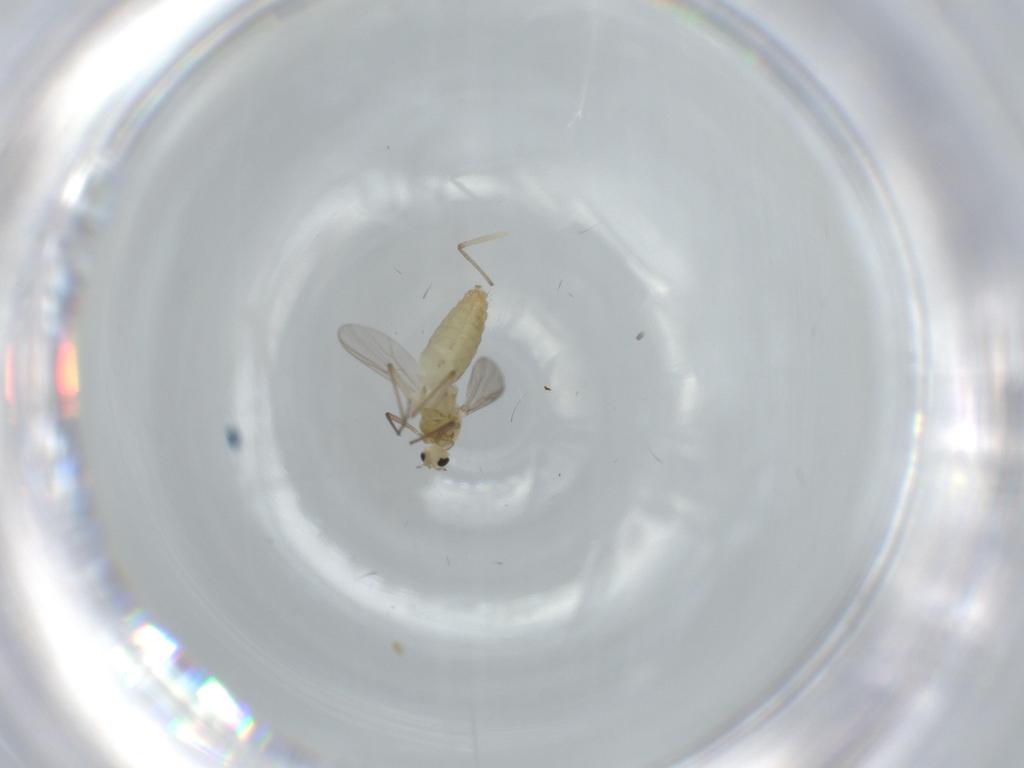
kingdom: Animalia
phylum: Arthropoda
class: Insecta
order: Diptera
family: Chironomidae
